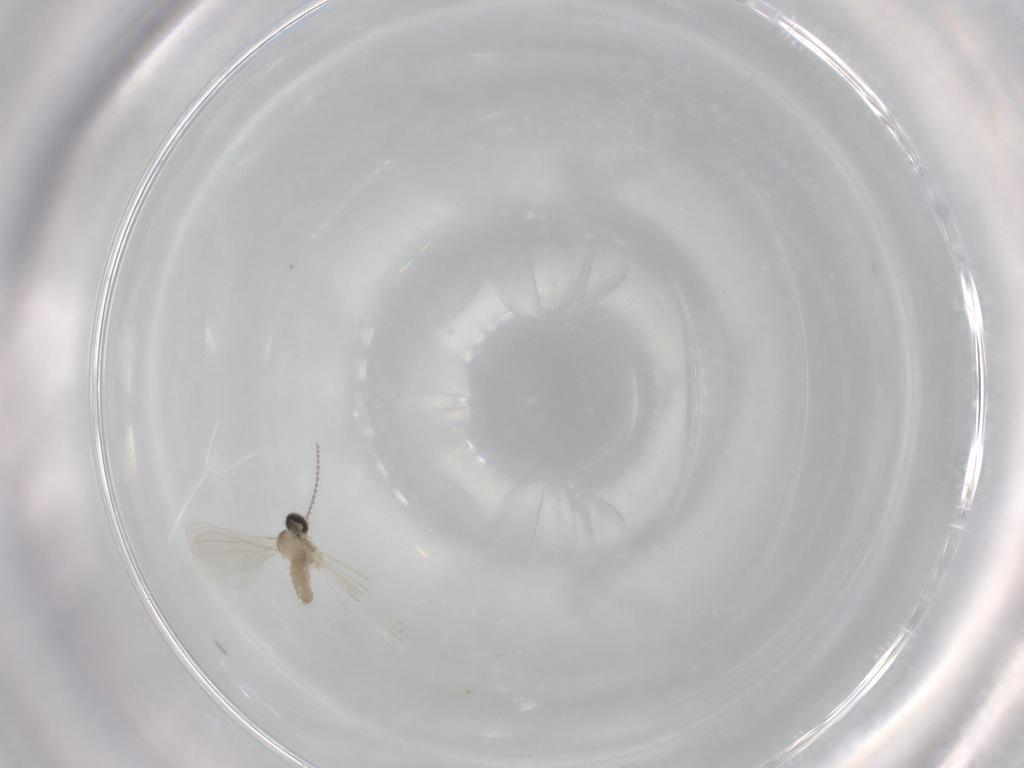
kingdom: Animalia
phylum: Arthropoda
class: Insecta
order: Diptera
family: Cecidomyiidae
